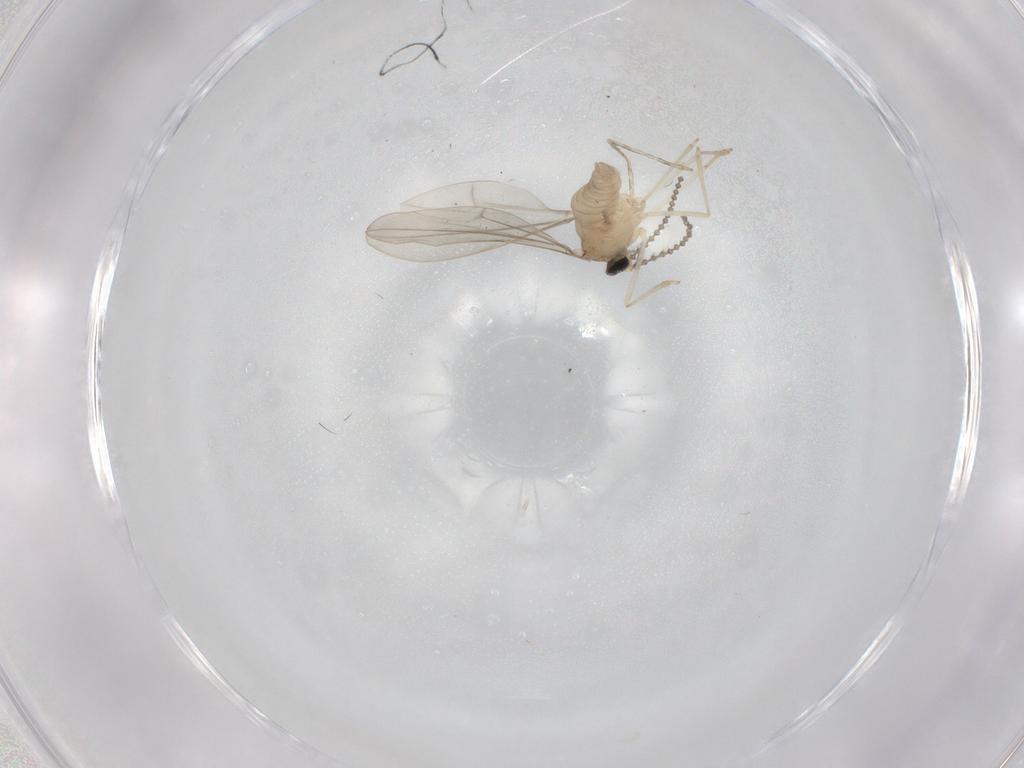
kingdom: Animalia
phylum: Arthropoda
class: Insecta
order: Diptera
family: Cecidomyiidae
